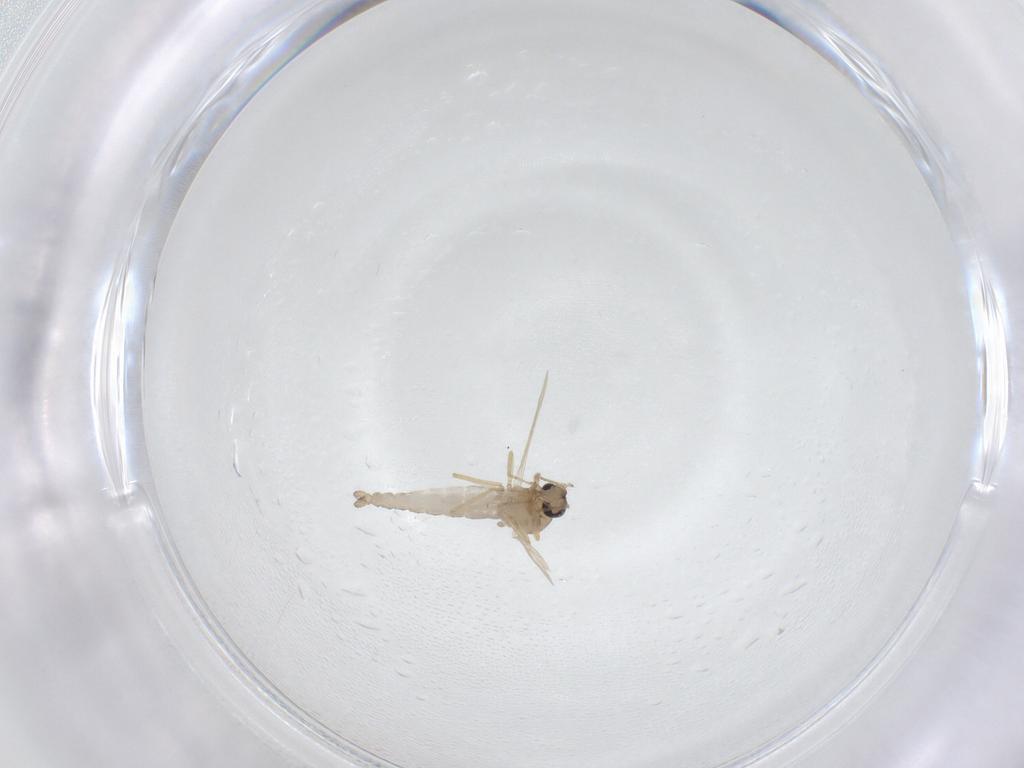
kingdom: Animalia
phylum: Arthropoda
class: Insecta
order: Diptera
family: Ceratopogonidae
